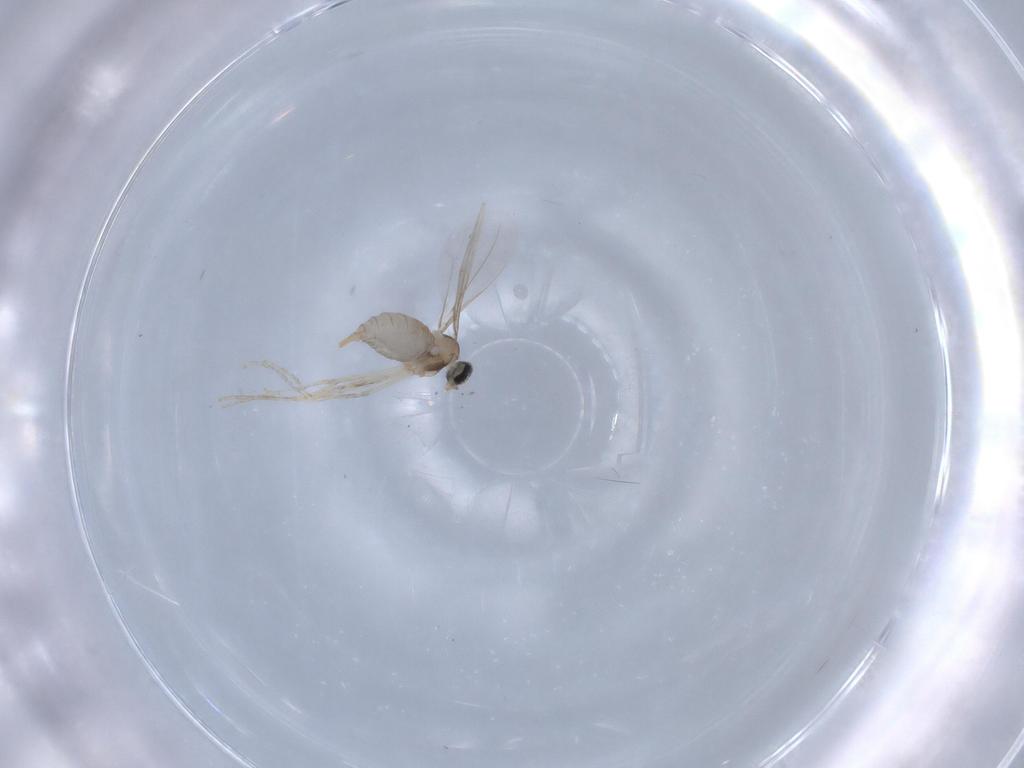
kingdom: Animalia
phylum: Arthropoda
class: Insecta
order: Diptera
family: Cecidomyiidae
